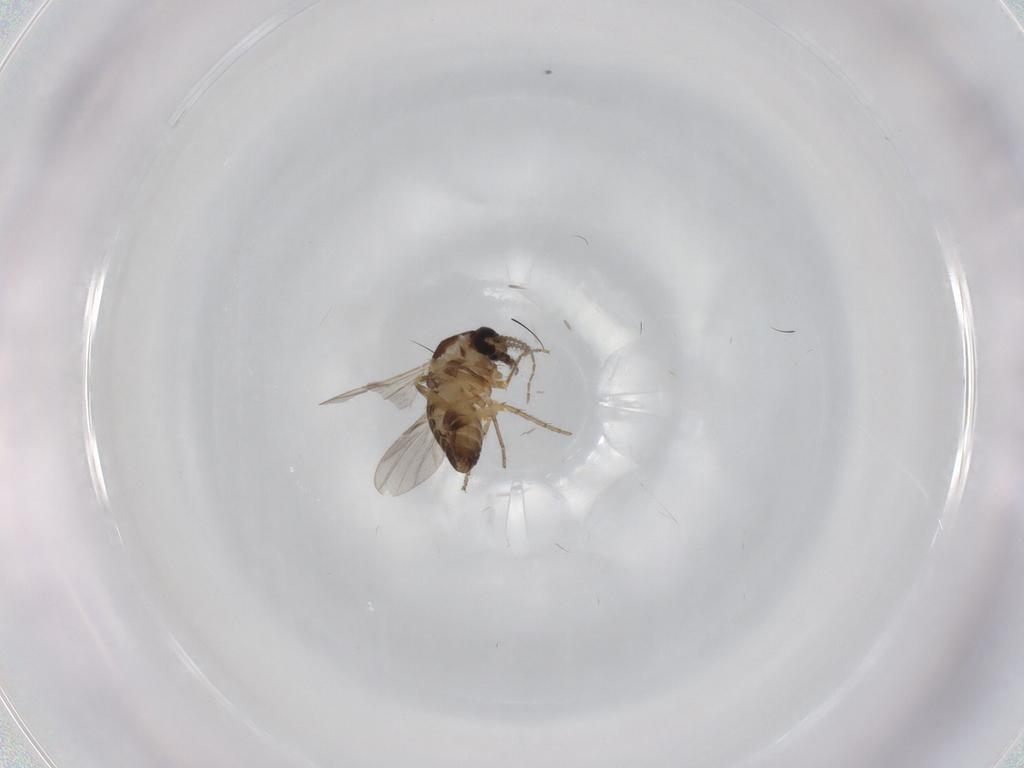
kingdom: Animalia
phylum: Arthropoda
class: Insecta
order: Diptera
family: Ceratopogonidae
